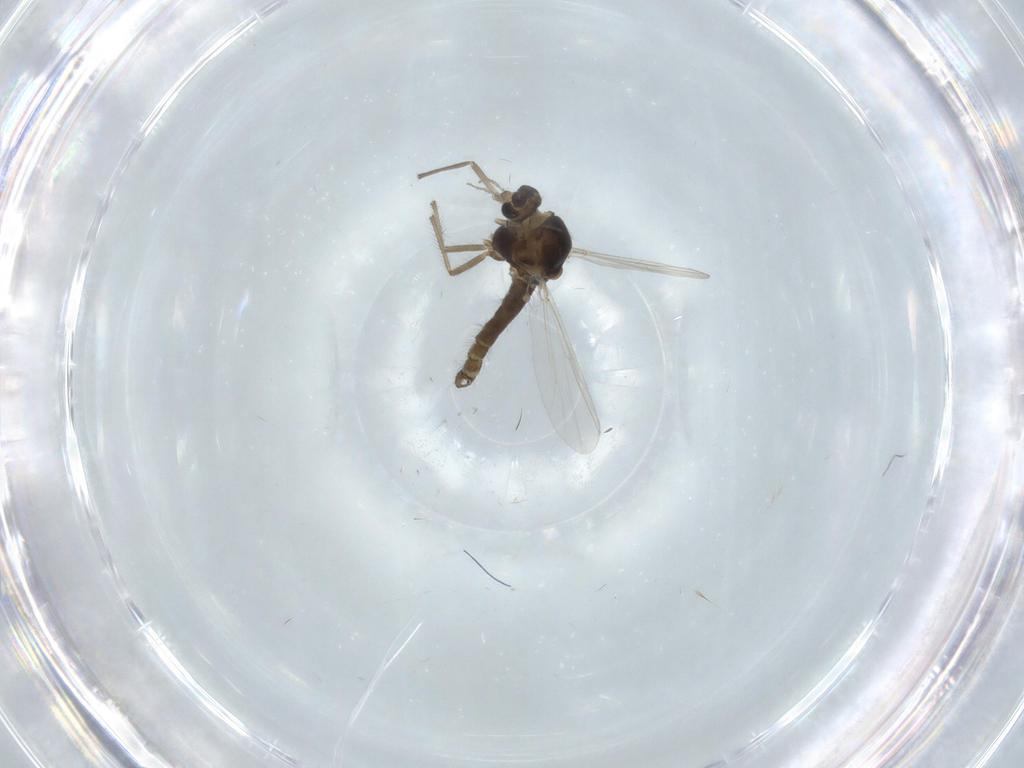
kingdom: Animalia
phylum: Arthropoda
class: Insecta
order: Diptera
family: Chironomidae
